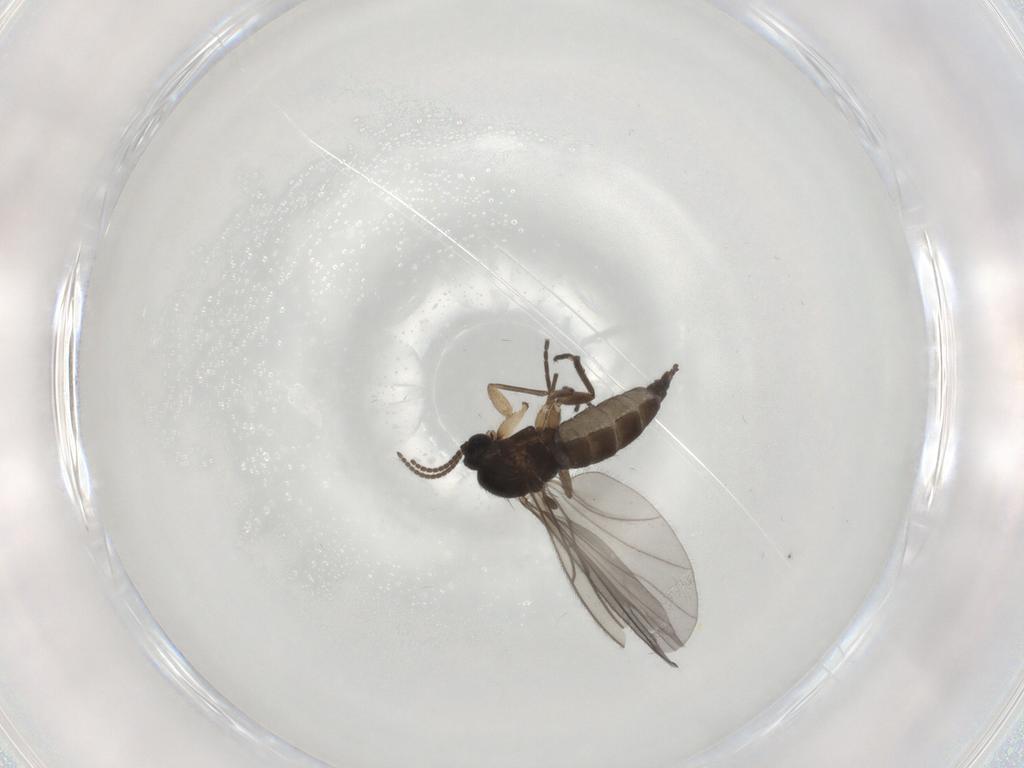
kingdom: Animalia
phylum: Arthropoda
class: Insecta
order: Diptera
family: Sciaridae
